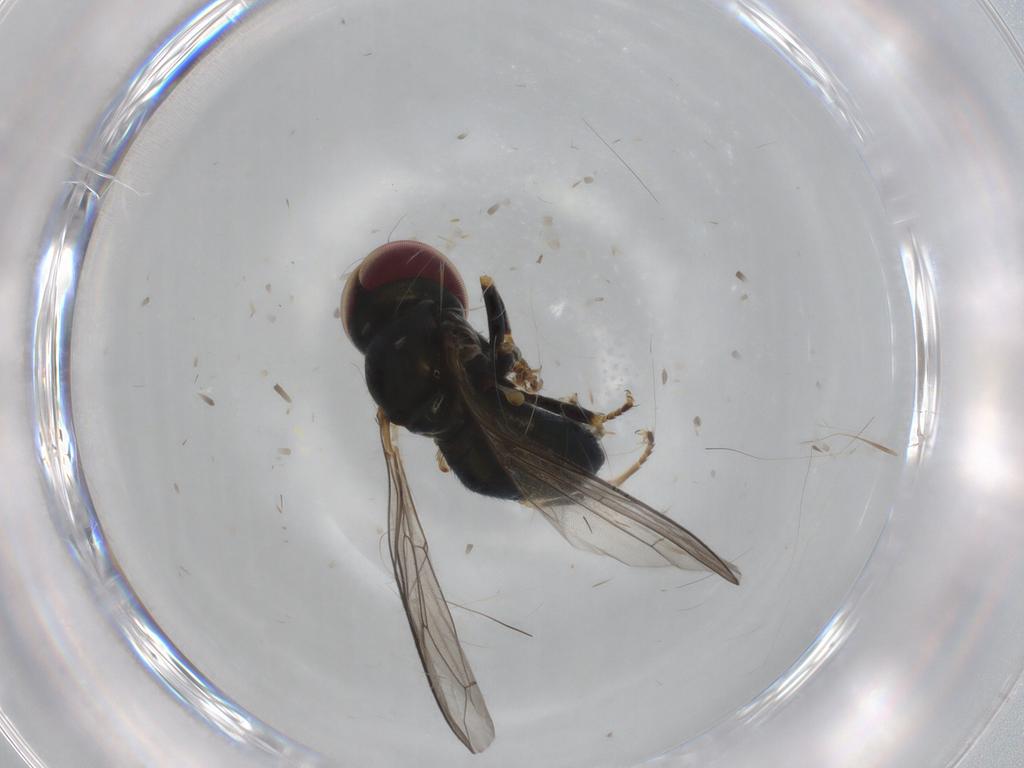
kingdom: Animalia
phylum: Arthropoda
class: Insecta
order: Diptera
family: Pipunculidae
